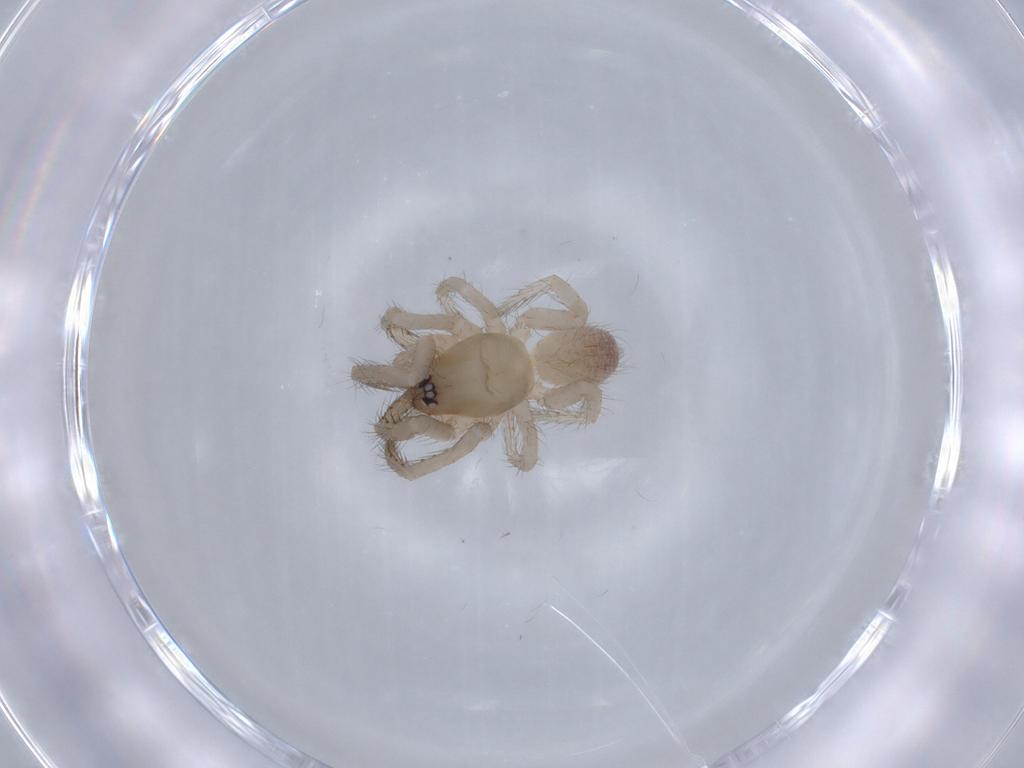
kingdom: Animalia
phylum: Arthropoda
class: Arachnida
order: Araneae
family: Segestriidae
